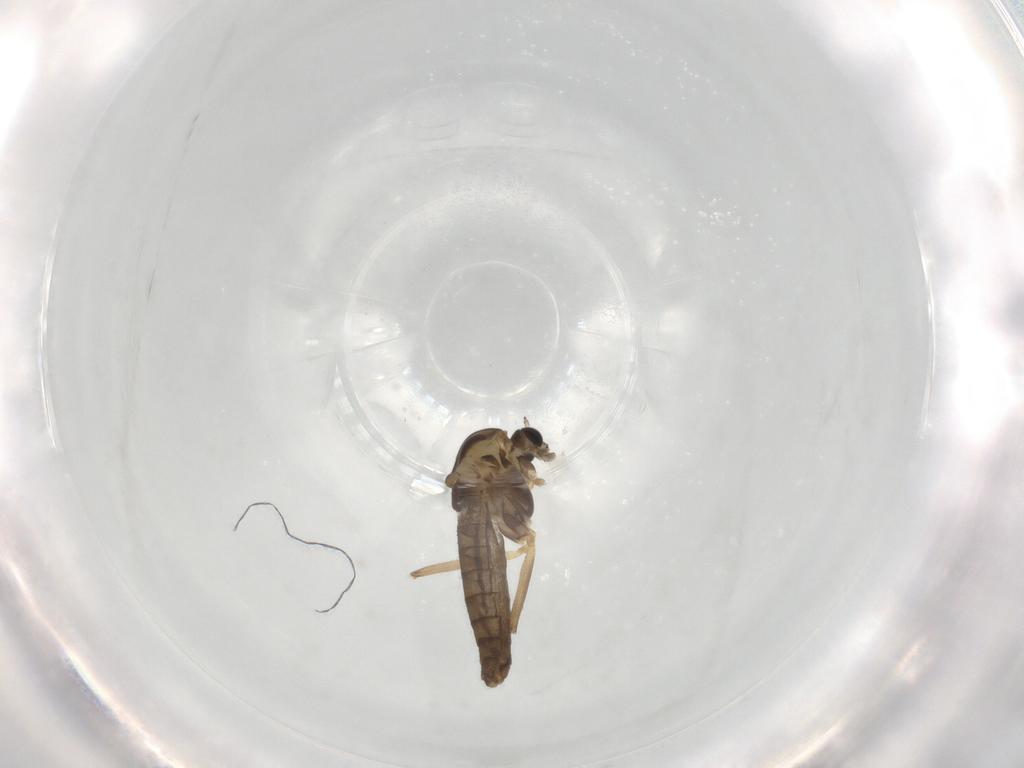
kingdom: Animalia
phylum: Arthropoda
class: Insecta
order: Diptera
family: Chironomidae
